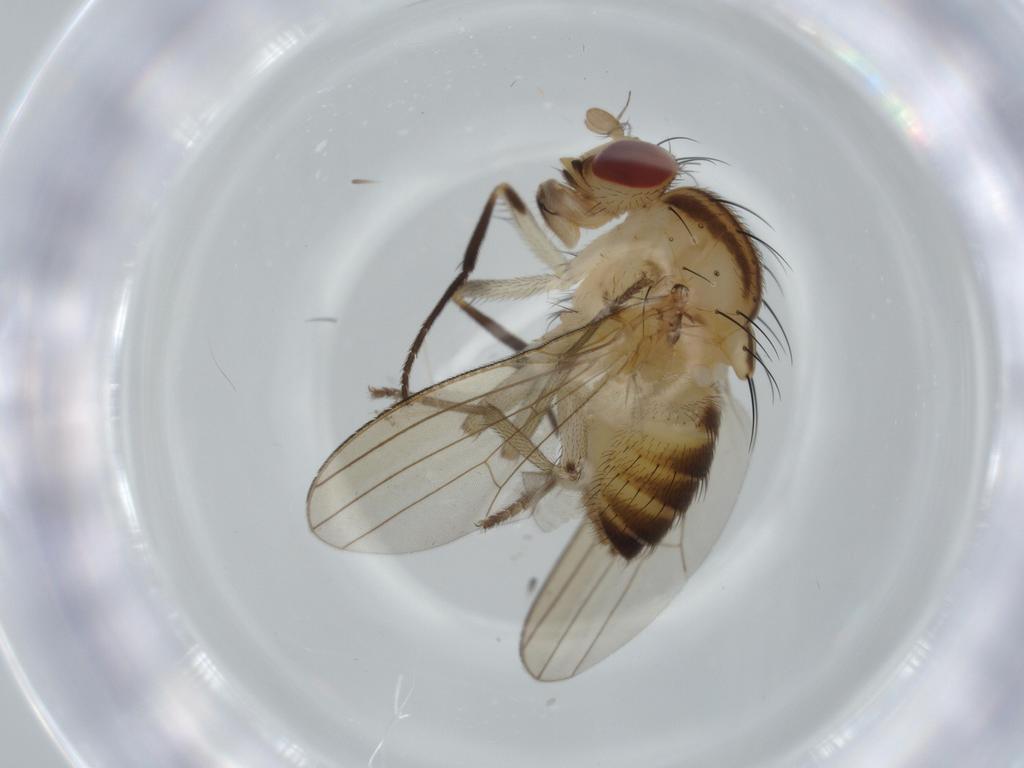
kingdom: Animalia
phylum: Arthropoda
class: Insecta
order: Diptera
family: Lauxaniidae
